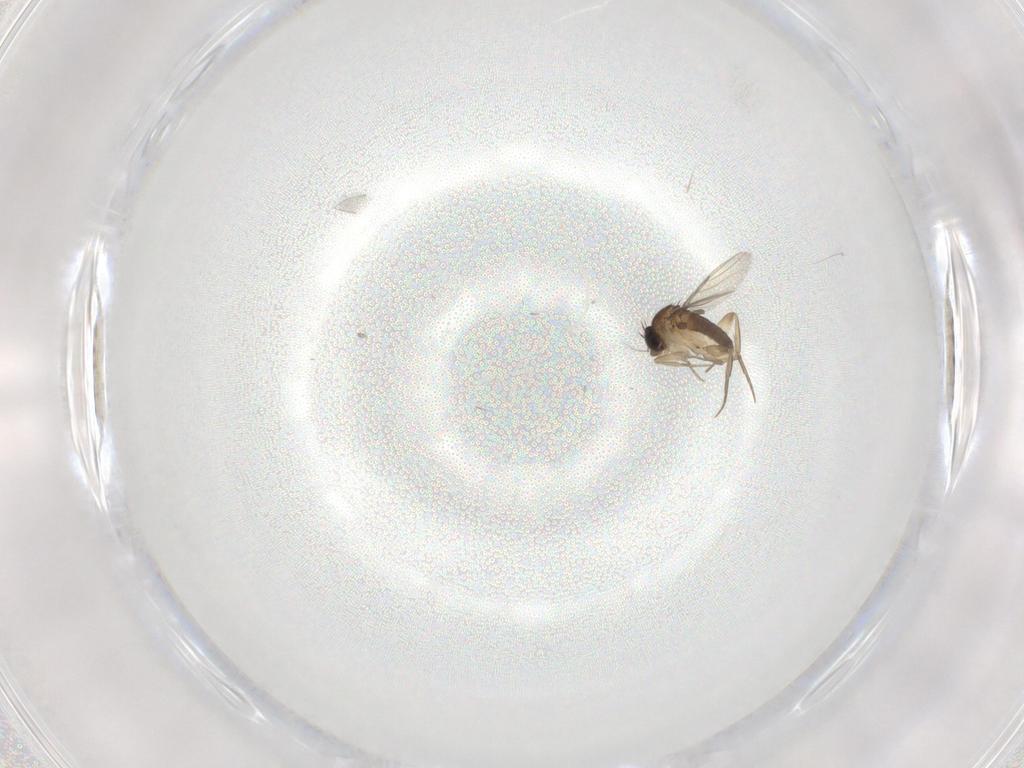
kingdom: Animalia
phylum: Arthropoda
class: Insecta
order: Diptera
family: Phoridae
